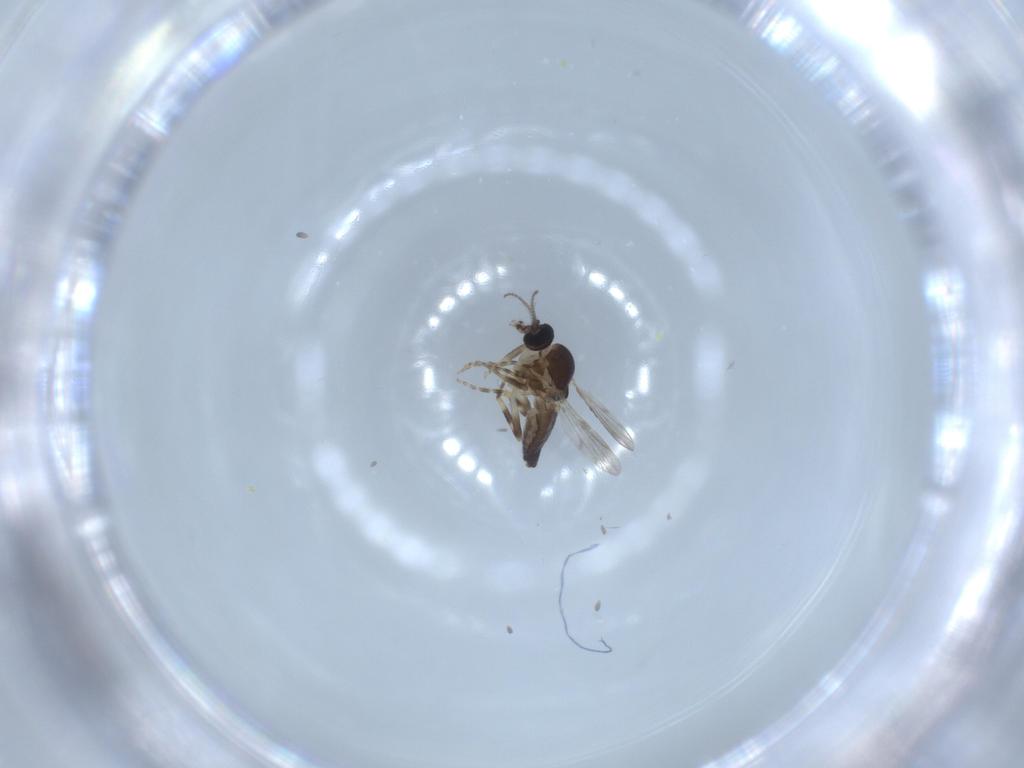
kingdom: Animalia
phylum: Arthropoda
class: Insecta
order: Diptera
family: Ceratopogonidae
